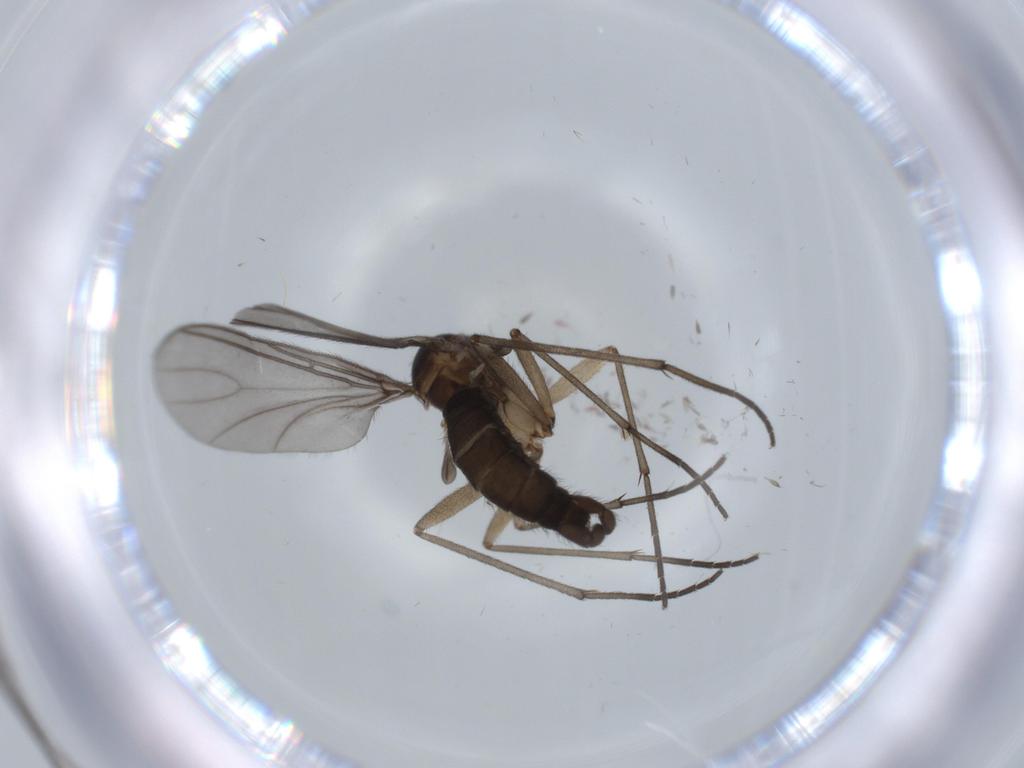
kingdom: Animalia
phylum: Arthropoda
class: Insecta
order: Diptera
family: Sciaridae
